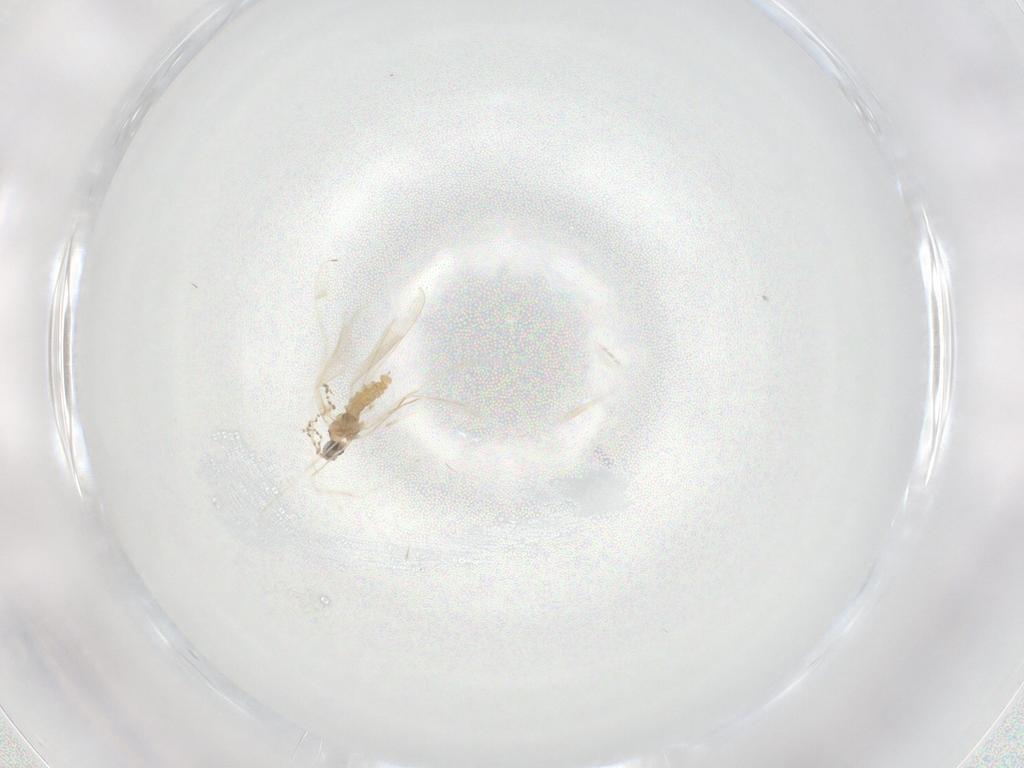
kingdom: Animalia
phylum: Arthropoda
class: Insecta
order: Diptera
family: Cecidomyiidae
